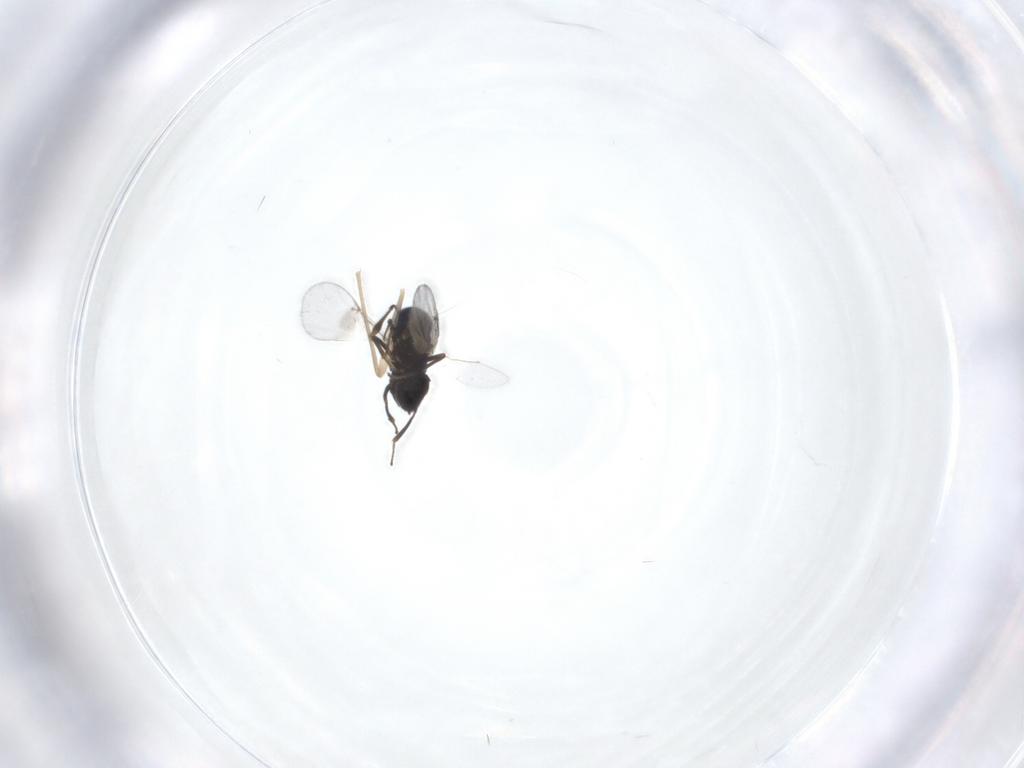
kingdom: Animalia
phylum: Arthropoda
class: Insecta
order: Hymenoptera
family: Encyrtidae
